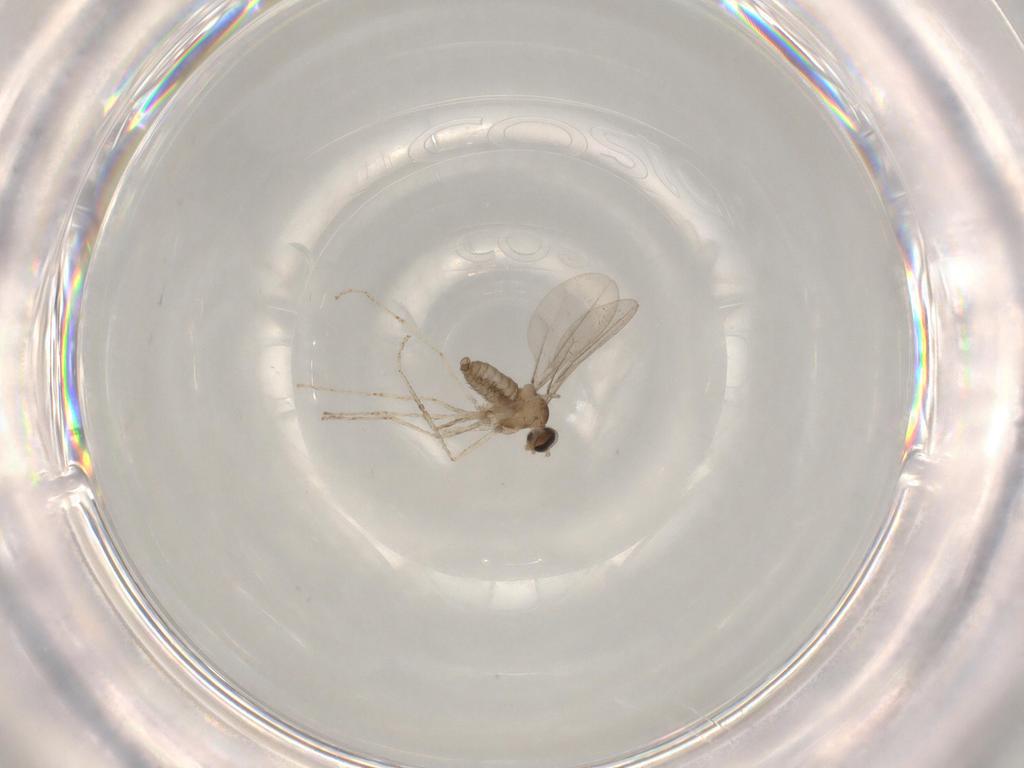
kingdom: Animalia
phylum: Arthropoda
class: Insecta
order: Diptera
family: Cecidomyiidae
